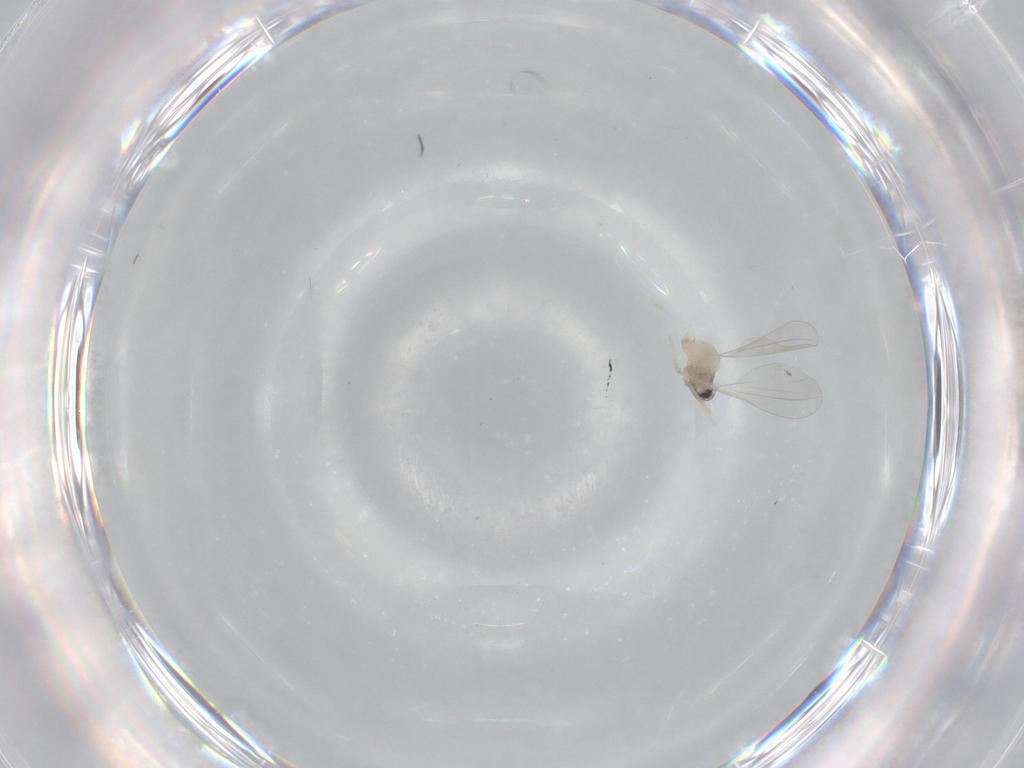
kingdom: Animalia
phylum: Arthropoda
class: Insecta
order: Diptera
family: Cecidomyiidae
